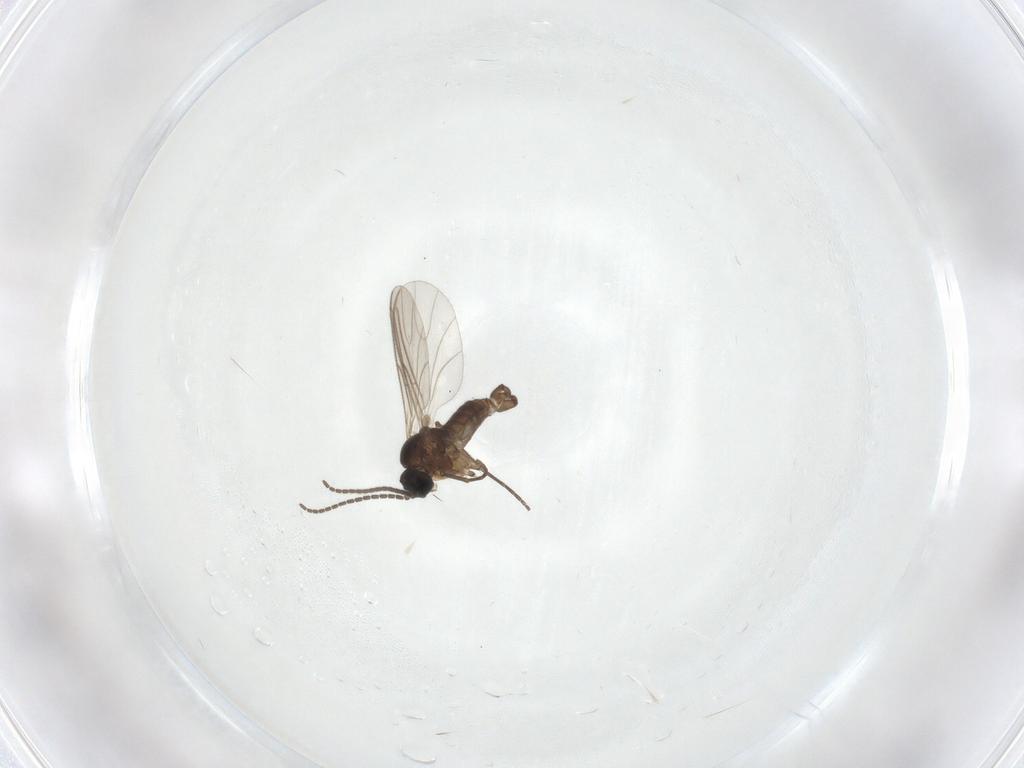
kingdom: Animalia
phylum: Arthropoda
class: Insecta
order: Diptera
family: Sciaridae
